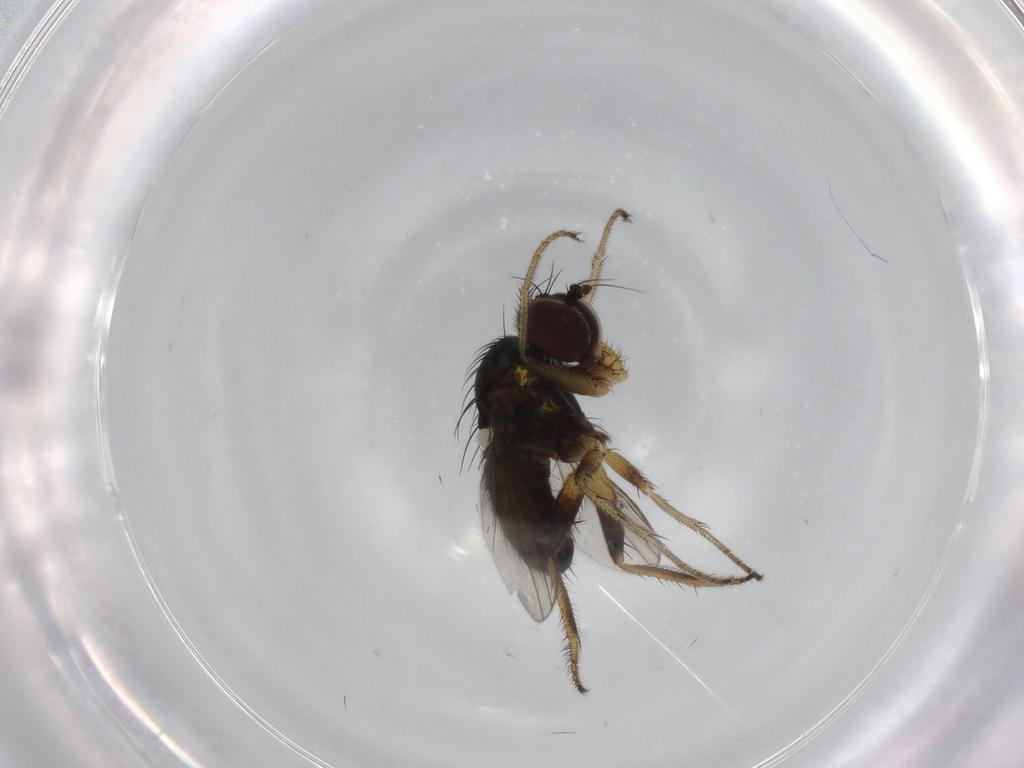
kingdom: Animalia
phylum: Arthropoda
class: Insecta
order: Diptera
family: Dolichopodidae
